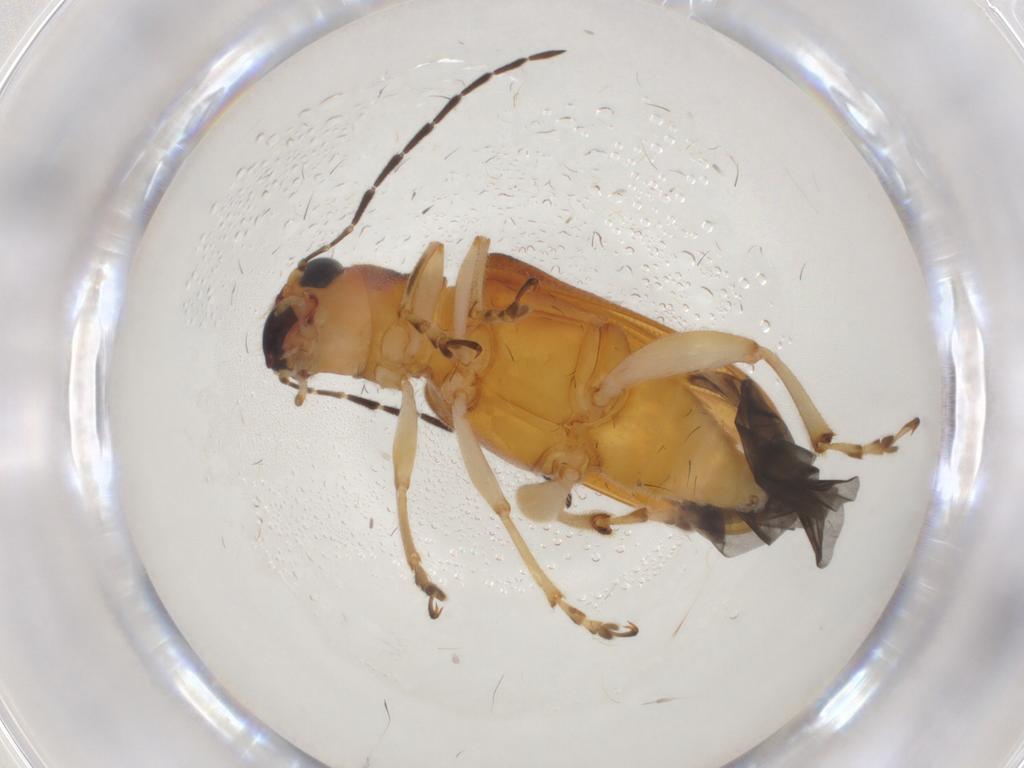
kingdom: Animalia
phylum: Arthropoda
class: Insecta
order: Coleoptera
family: Chrysomelidae
